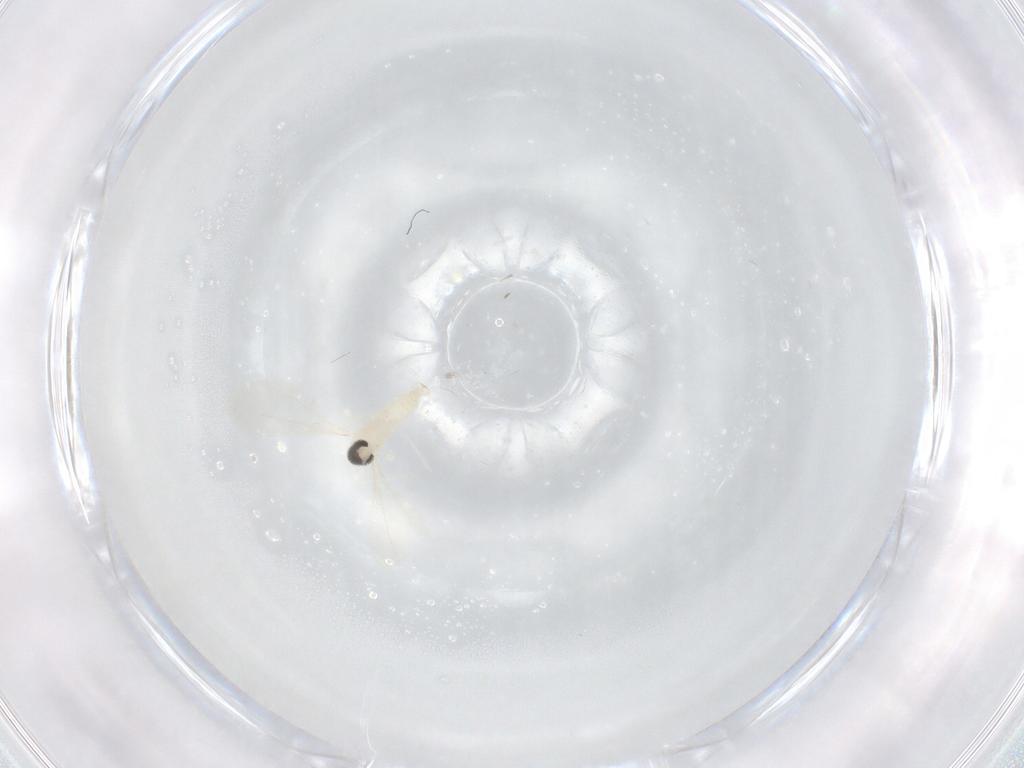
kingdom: Animalia
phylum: Arthropoda
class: Insecta
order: Diptera
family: Cecidomyiidae
